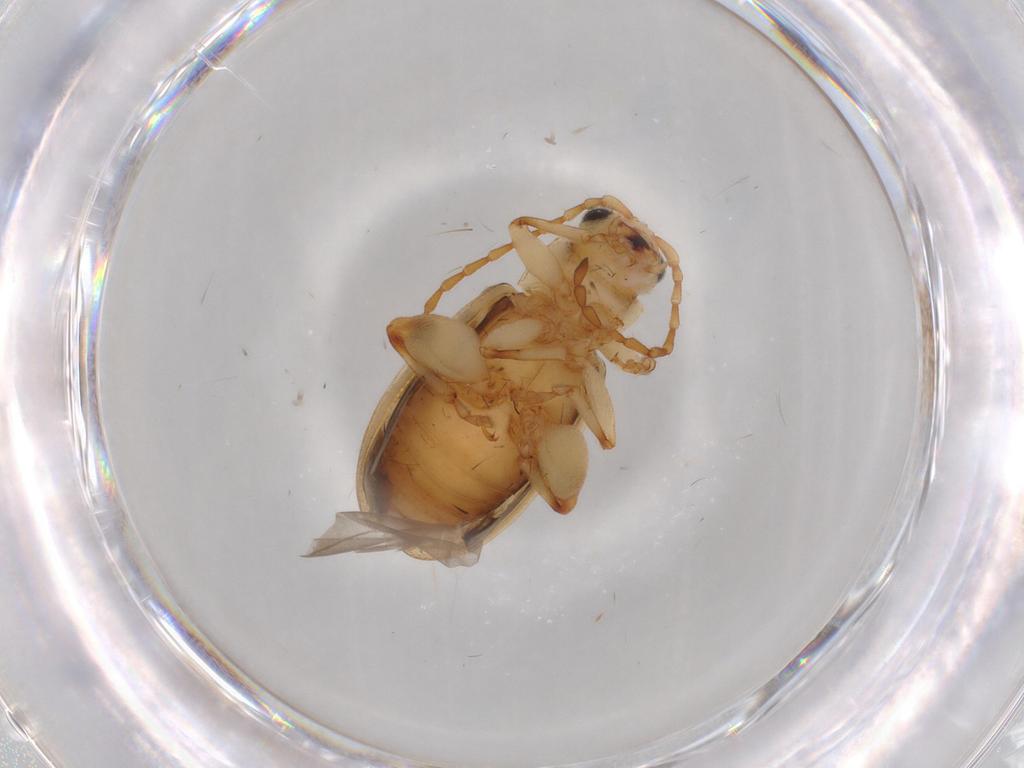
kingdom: Animalia
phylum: Arthropoda
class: Insecta
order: Coleoptera
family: Chrysomelidae
